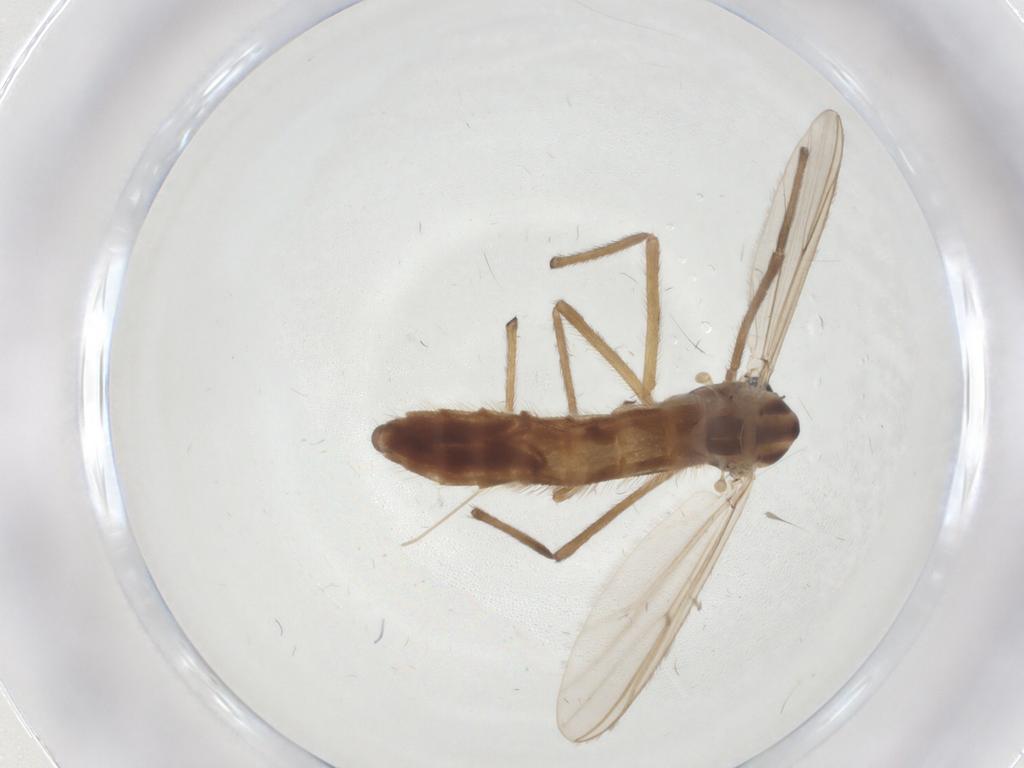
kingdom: Animalia
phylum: Arthropoda
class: Insecta
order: Diptera
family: Chironomidae
